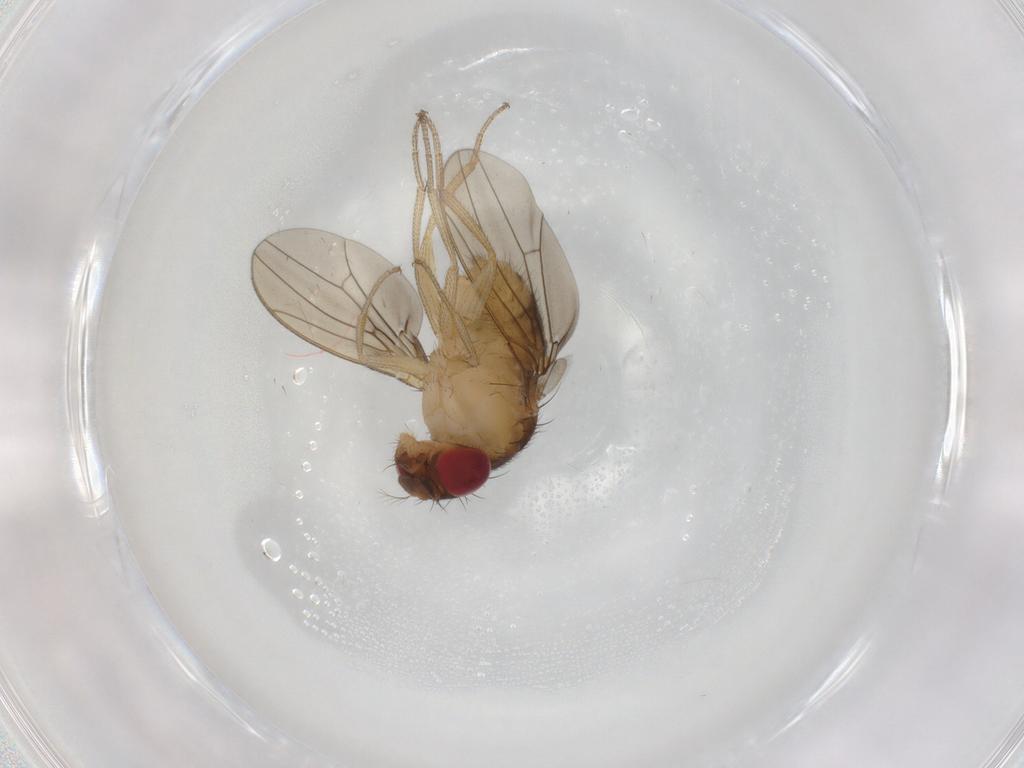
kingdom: Animalia
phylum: Arthropoda
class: Insecta
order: Diptera
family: Drosophilidae
